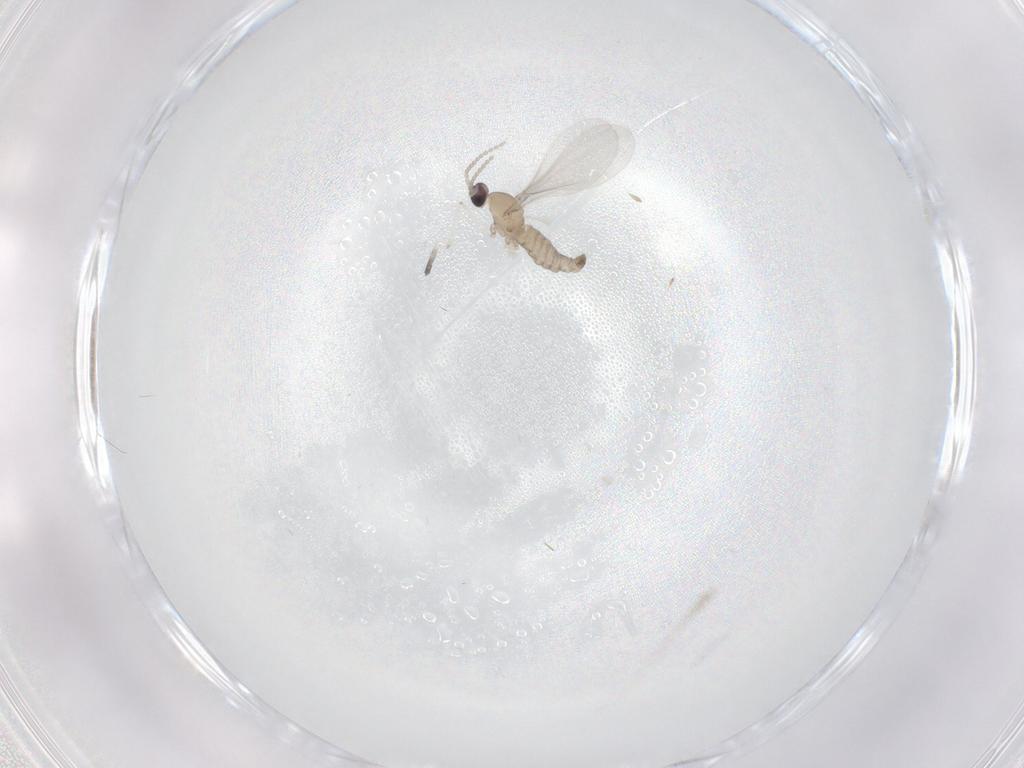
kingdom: Animalia
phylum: Arthropoda
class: Insecta
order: Diptera
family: Cecidomyiidae
